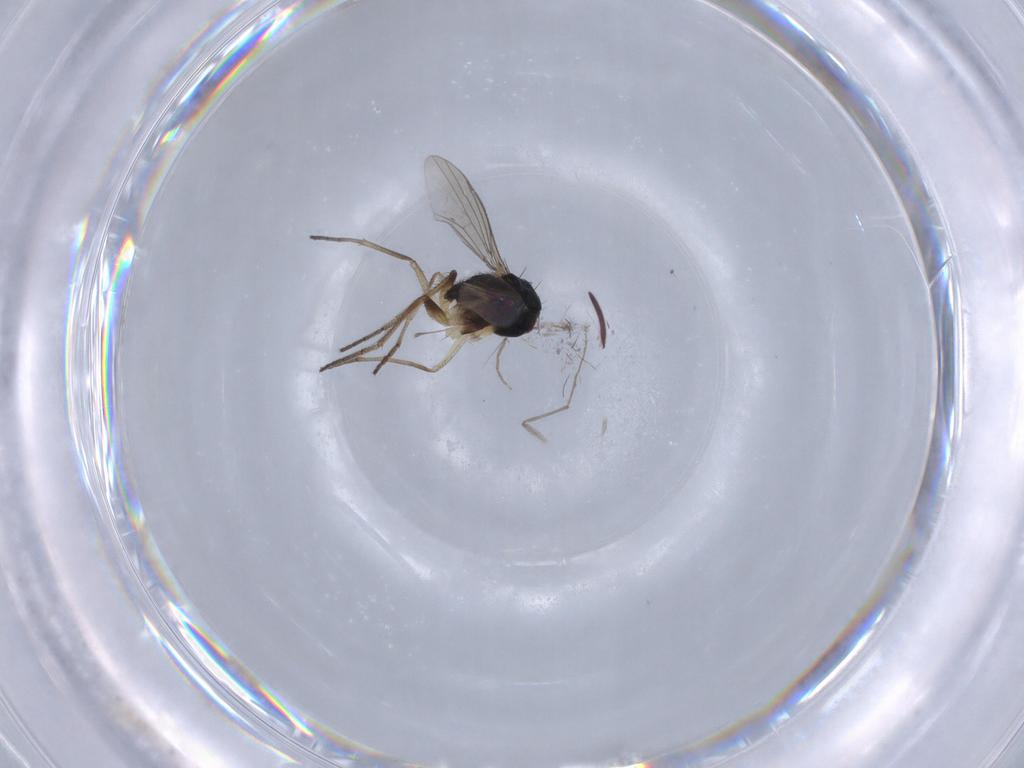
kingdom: Animalia
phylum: Arthropoda
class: Insecta
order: Diptera
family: Dolichopodidae
